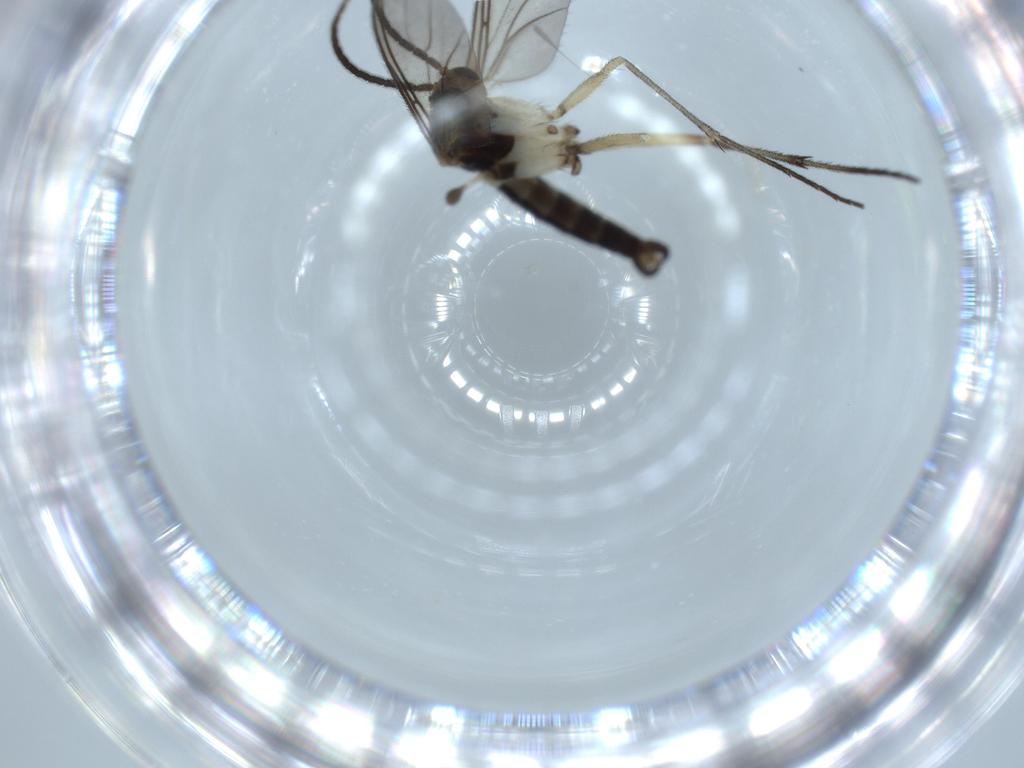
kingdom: Animalia
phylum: Arthropoda
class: Insecta
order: Diptera
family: Sciaridae
